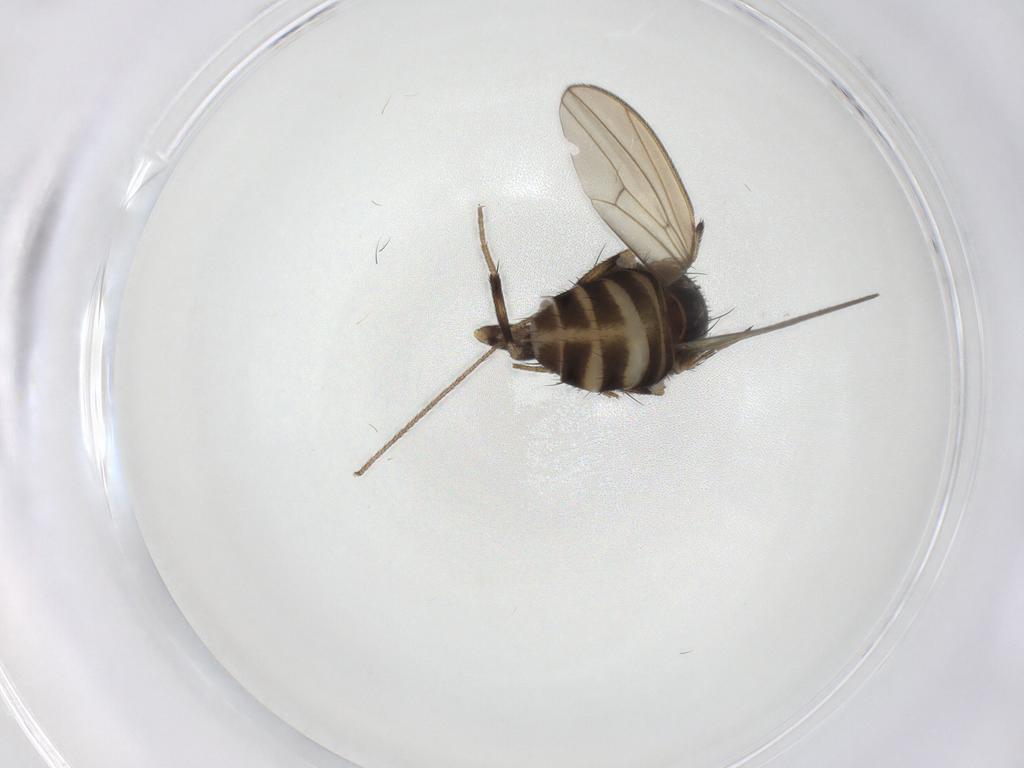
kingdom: Animalia
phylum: Arthropoda
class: Insecta
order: Diptera
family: Drosophilidae
